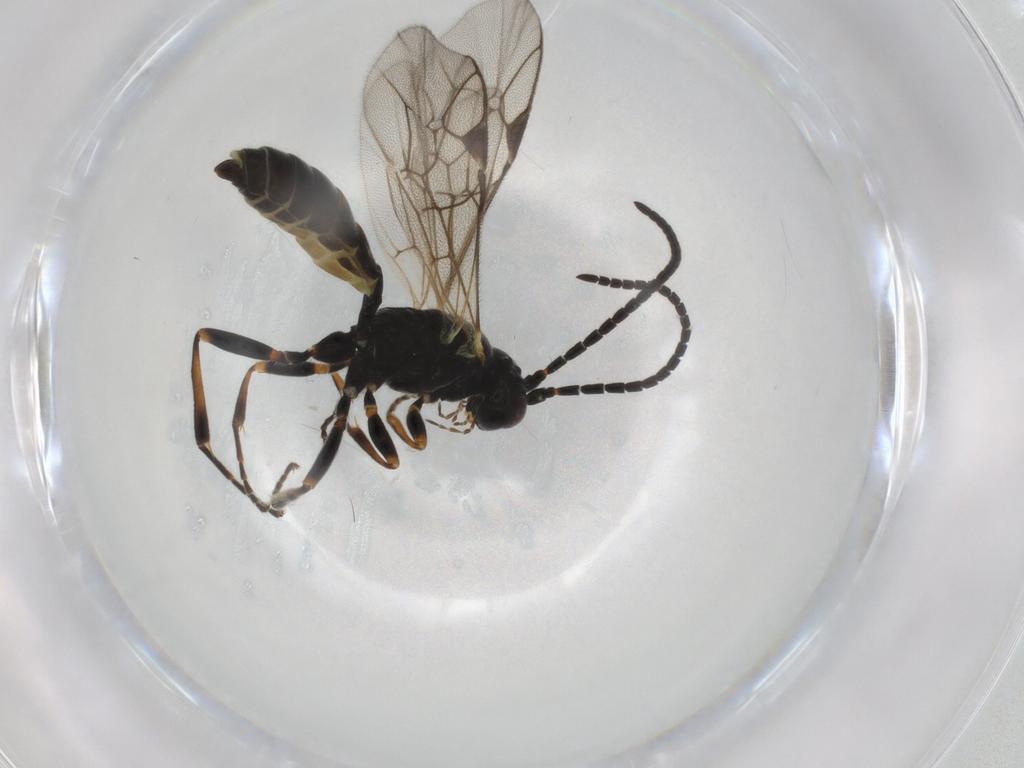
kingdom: Animalia
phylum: Arthropoda
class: Insecta
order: Hymenoptera
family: Ichneumonidae
